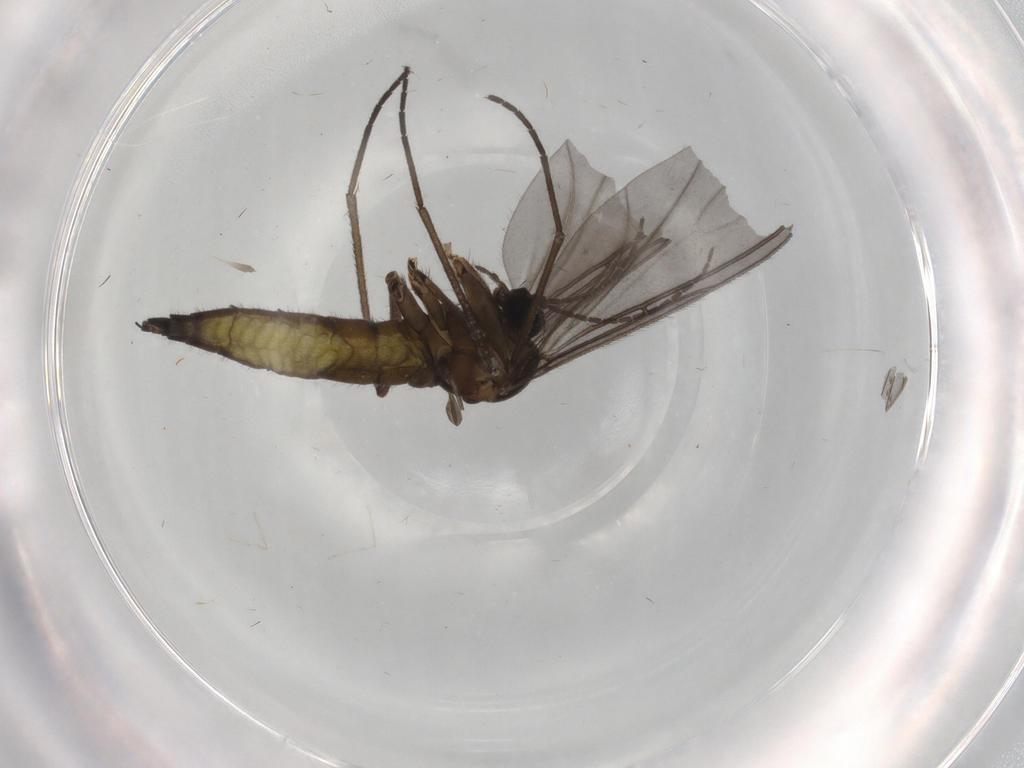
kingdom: Animalia
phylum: Arthropoda
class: Insecta
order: Diptera
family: Sciaridae
